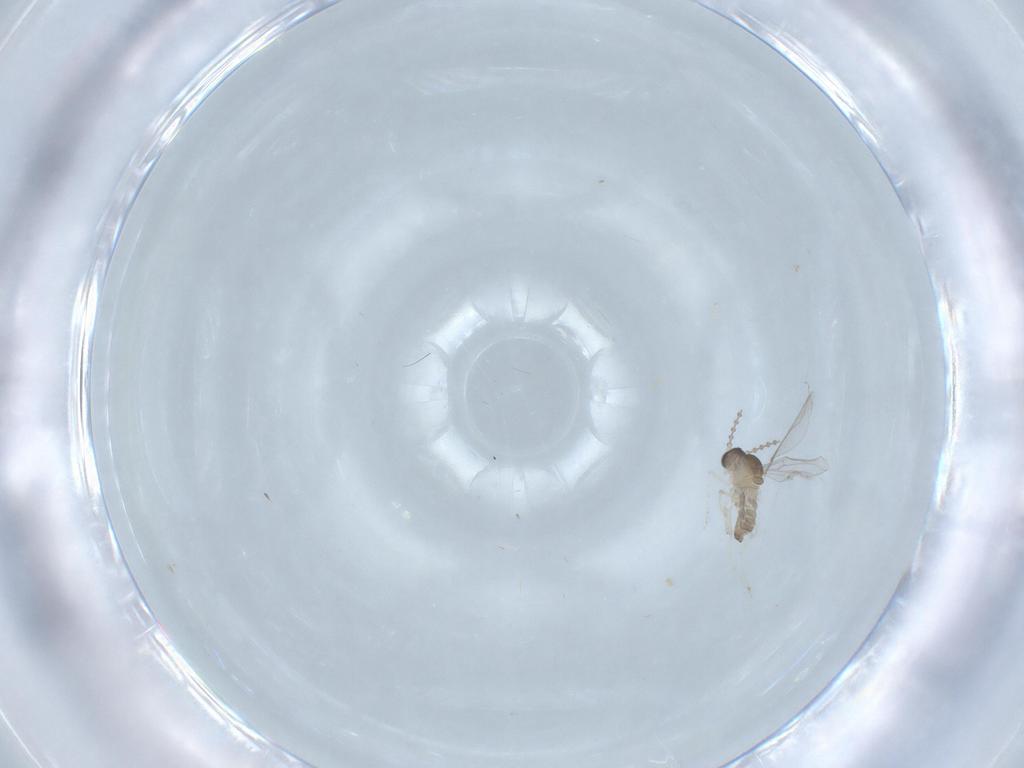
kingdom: Animalia
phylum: Arthropoda
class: Insecta
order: Diptera
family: Cecidomyiidae
